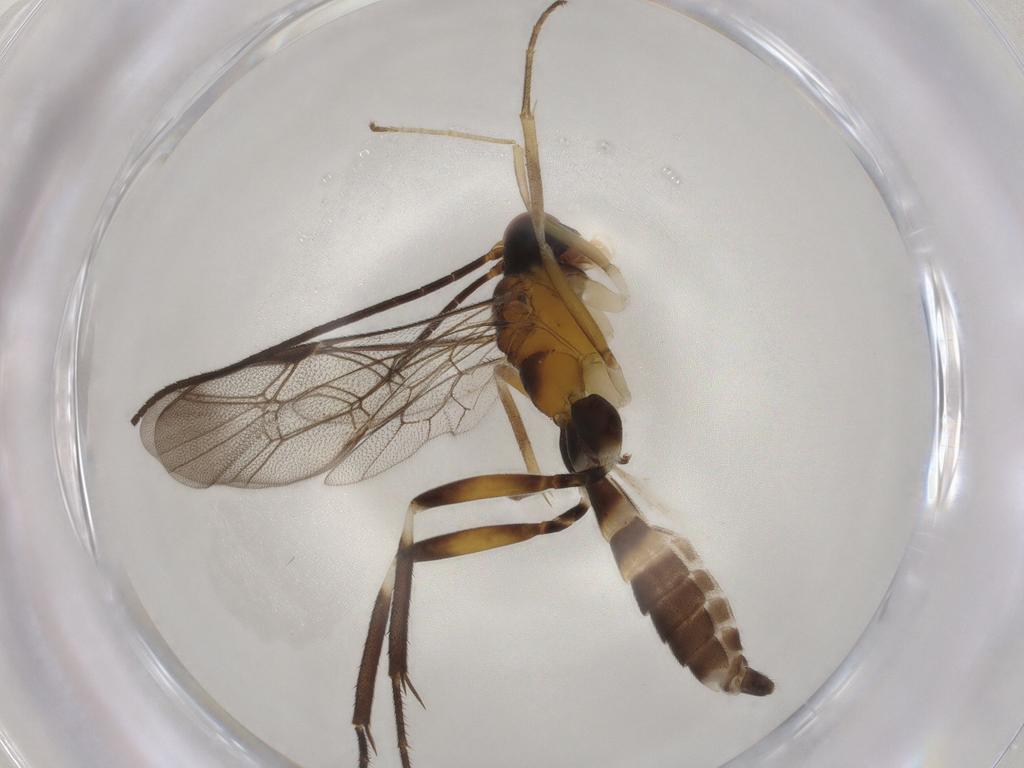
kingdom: Animalia
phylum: Arthropoda
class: Insecta
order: Hymenoptera
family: Ichneumonidae
